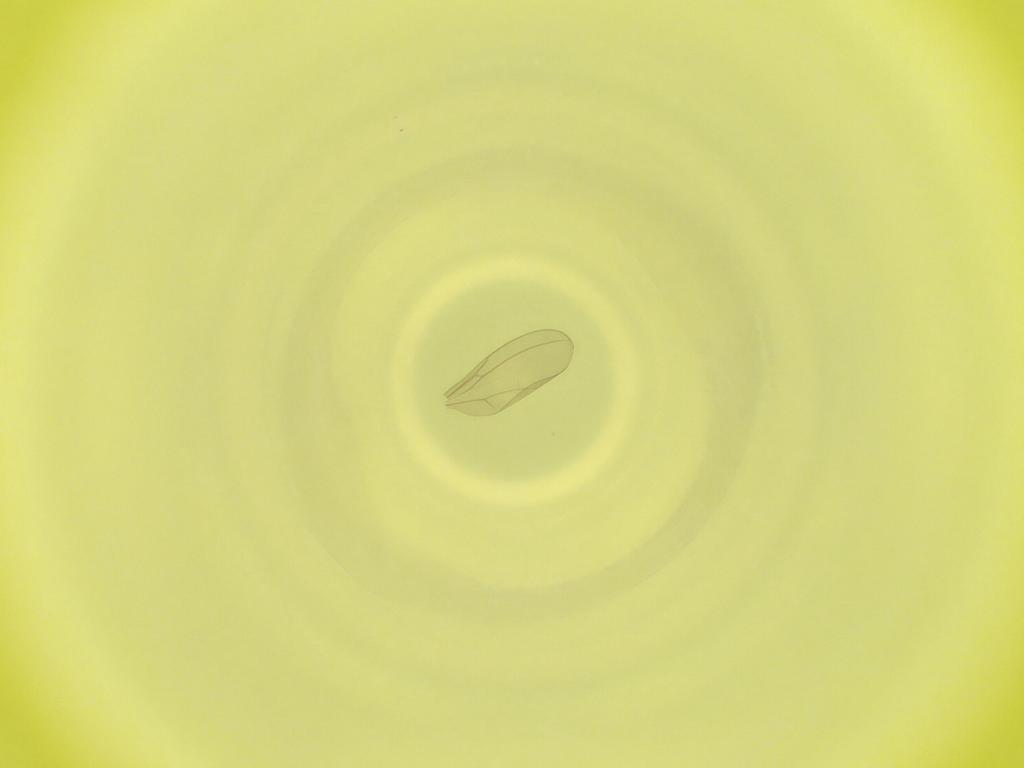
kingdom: Animalia
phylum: Arthropoda
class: Insecta
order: Diptera
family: Cecidomyiidae
